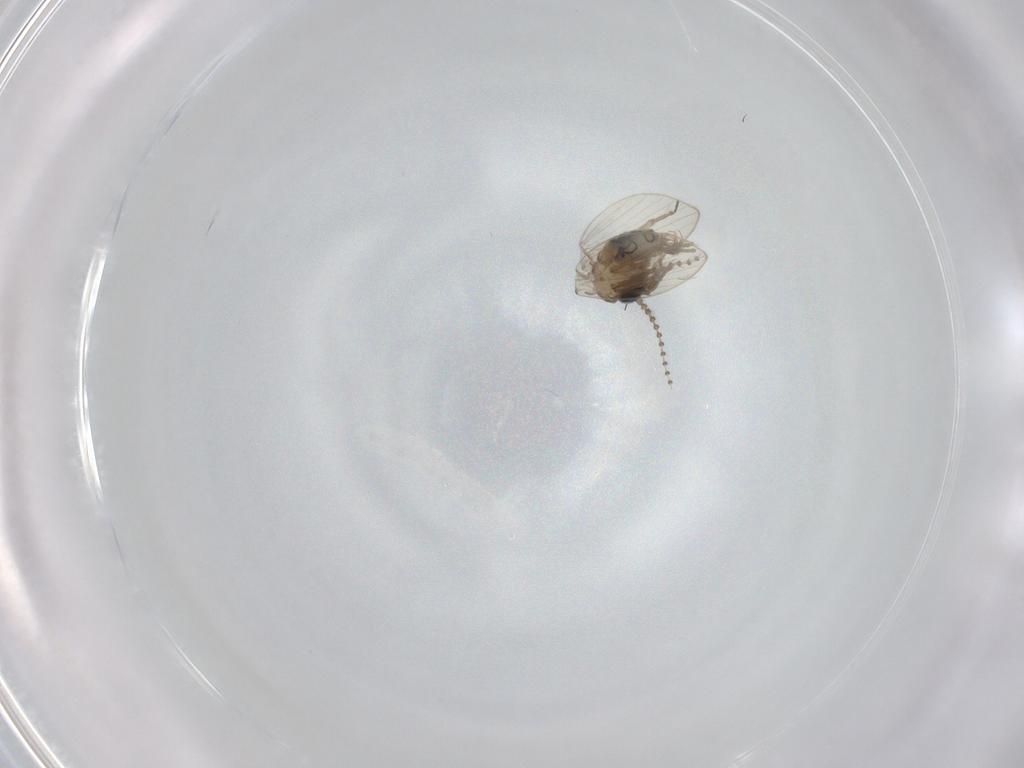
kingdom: Animalia
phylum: Arthropoda
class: Insecta
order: Diptera
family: Psychodidae
